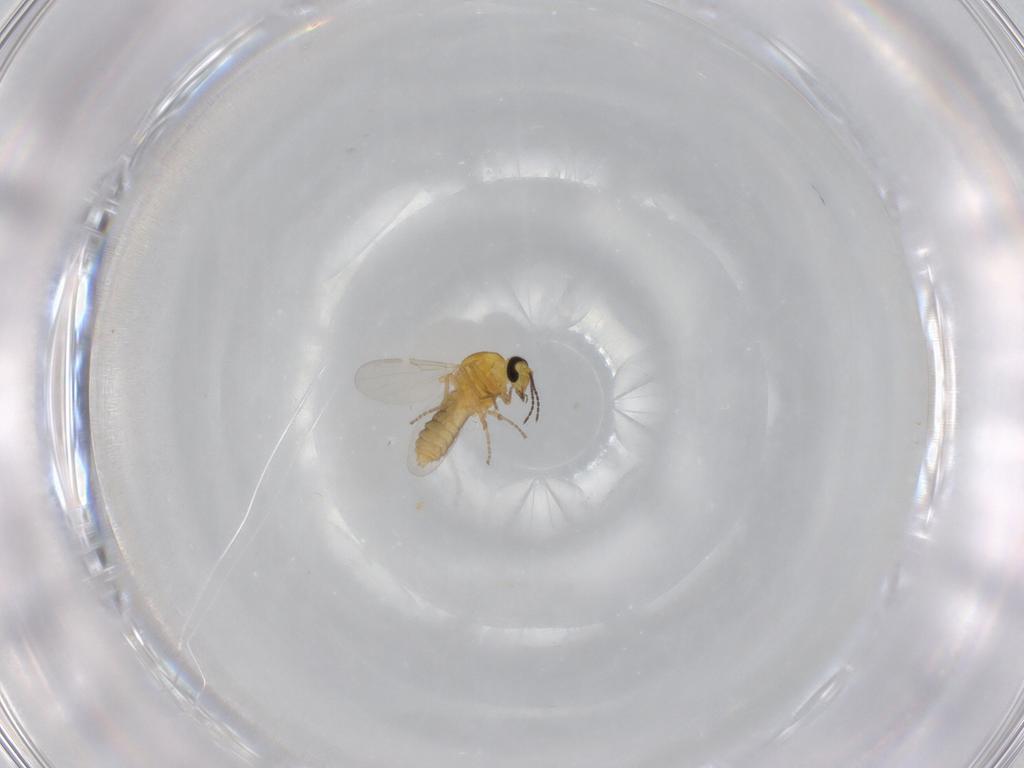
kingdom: Animalia
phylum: Arthropoda
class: Insecta
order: Diptera
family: Ceratopogonidae
